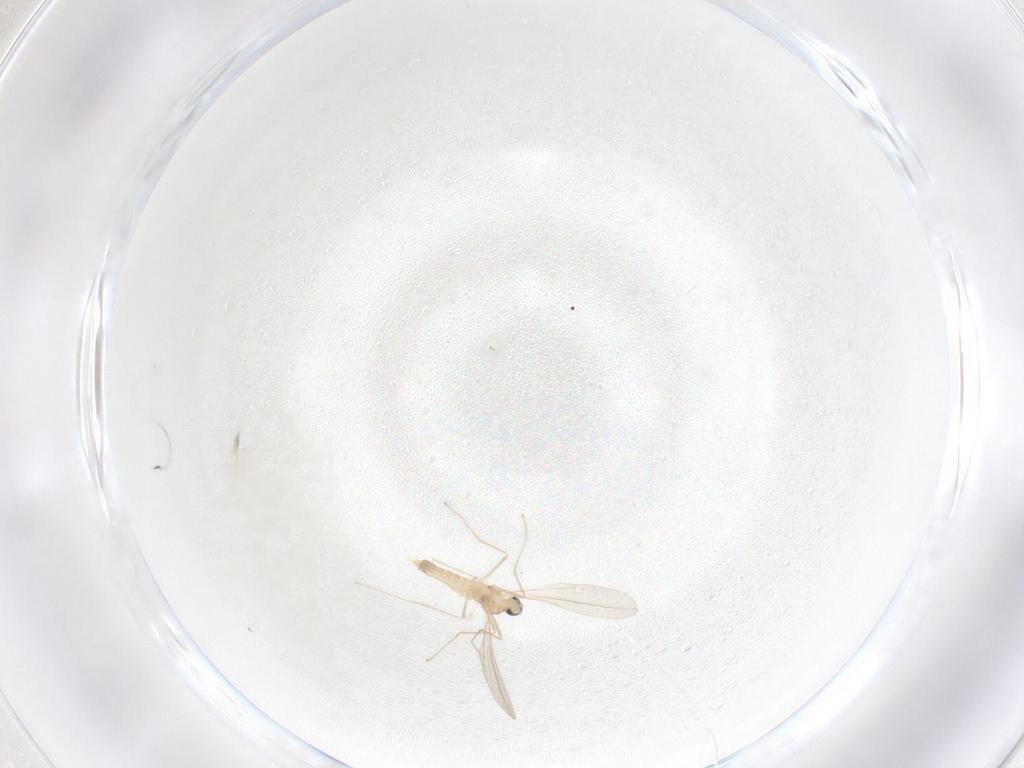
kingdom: Animalia
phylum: Arthropoda
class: Insecta
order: Diptera
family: Cecidomyiidae
